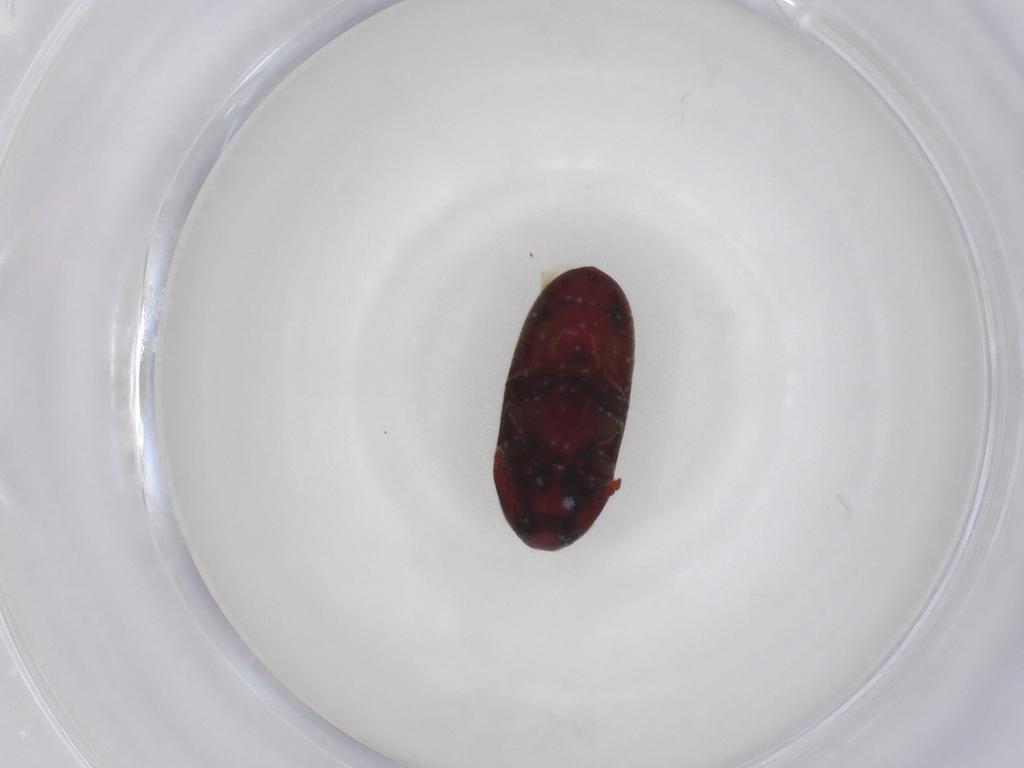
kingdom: Animalia
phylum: Arthropoda
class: Insecta
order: Coleoptera
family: Throscidae
